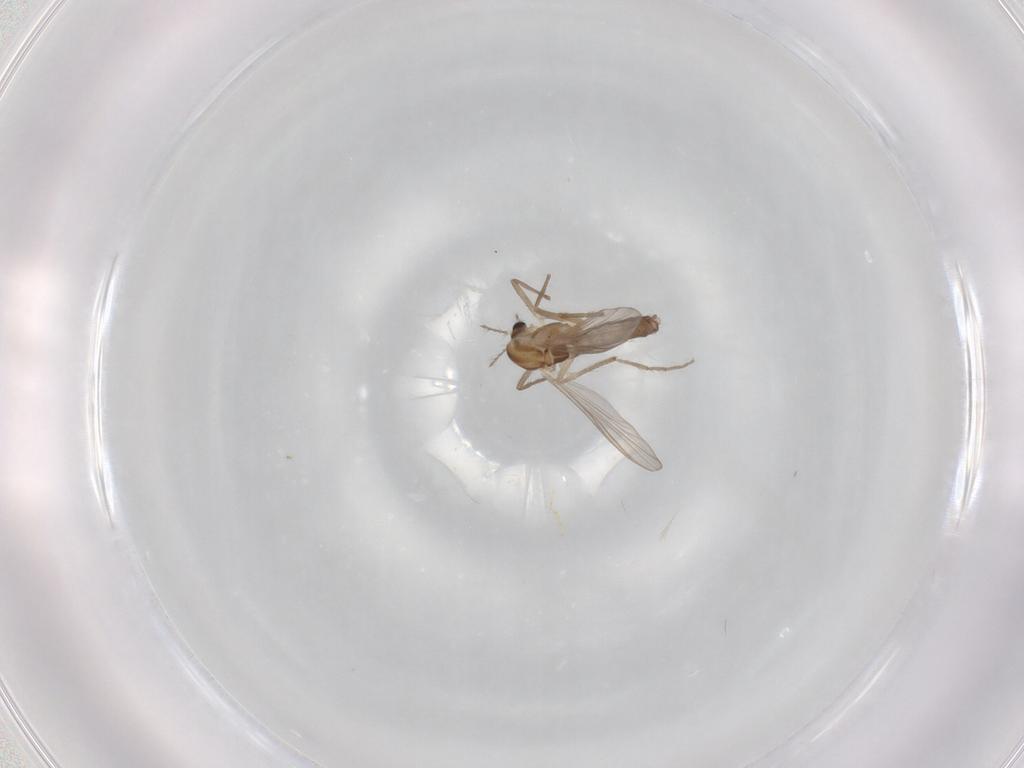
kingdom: Animalia
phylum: Arthropoda
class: Insecta
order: Diptera
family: Chironomidae
